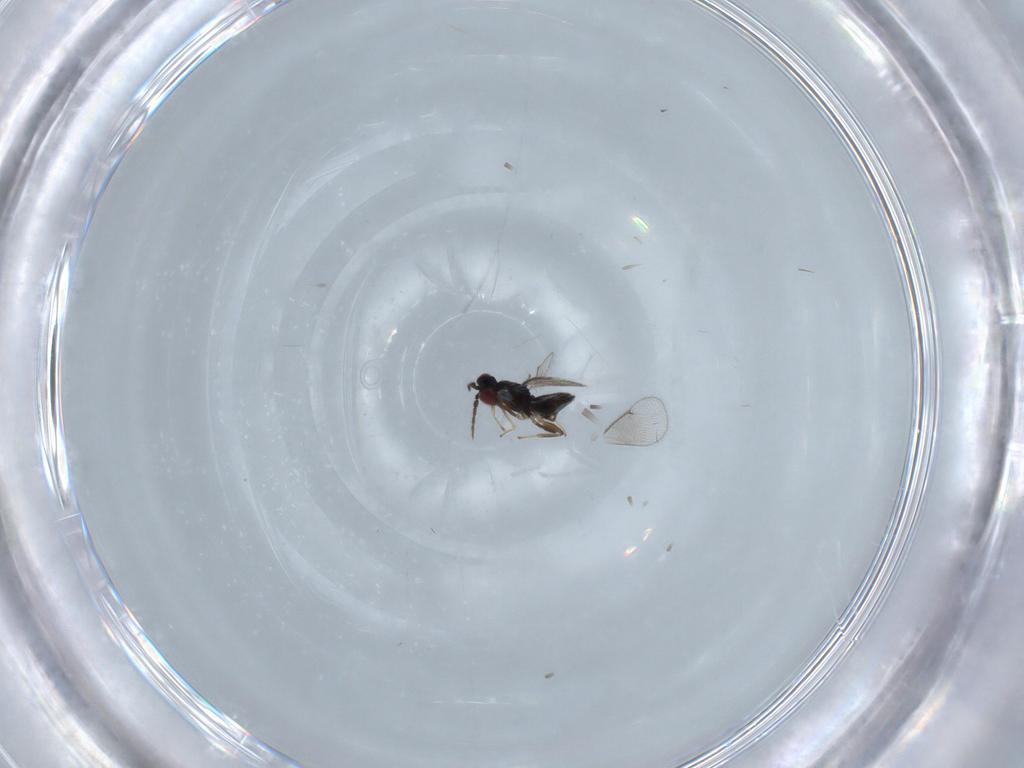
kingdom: Animalia
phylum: Arthropoda
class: Insecta
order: Hymenoptera
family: Eulophidae
